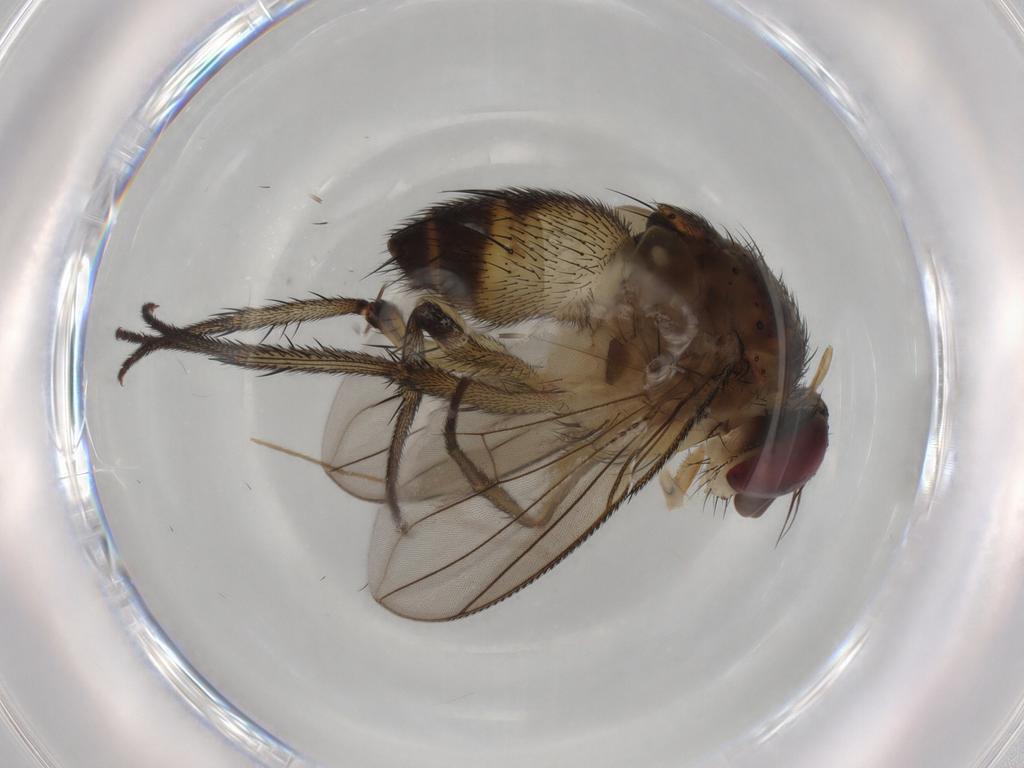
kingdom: Animalia
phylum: Arthropoda
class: Insecta
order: Diptera
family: Tachinidae
